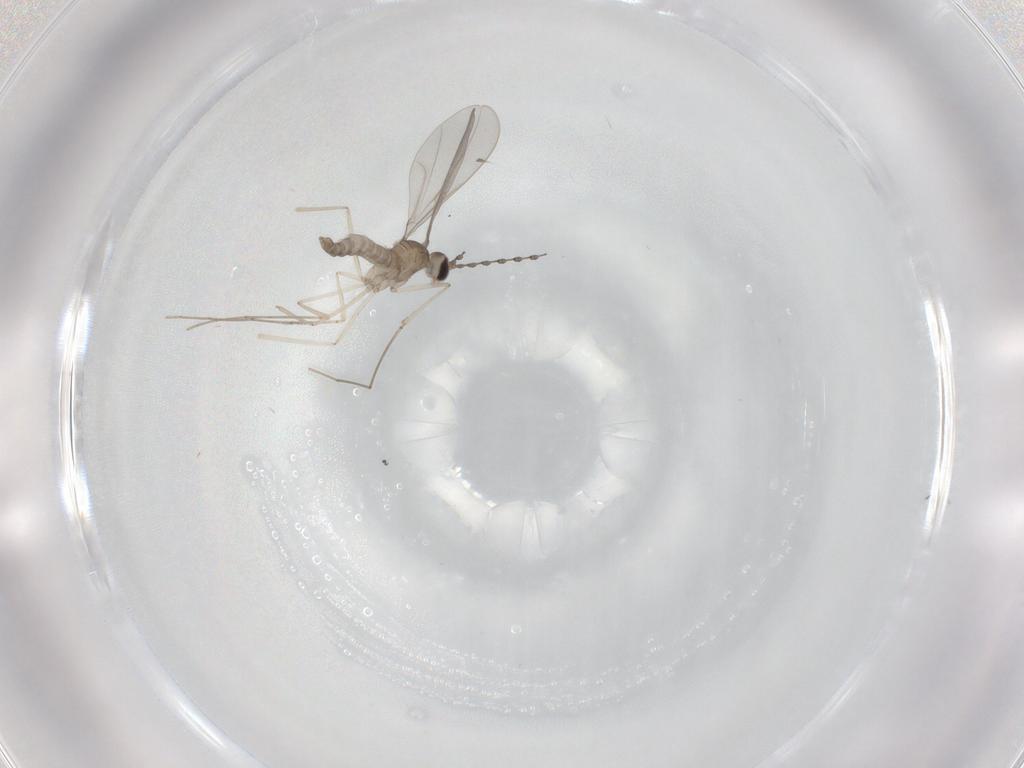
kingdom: Animalia
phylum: Arthropoda
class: Insecta
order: Diptera
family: Cecidomyiidae
